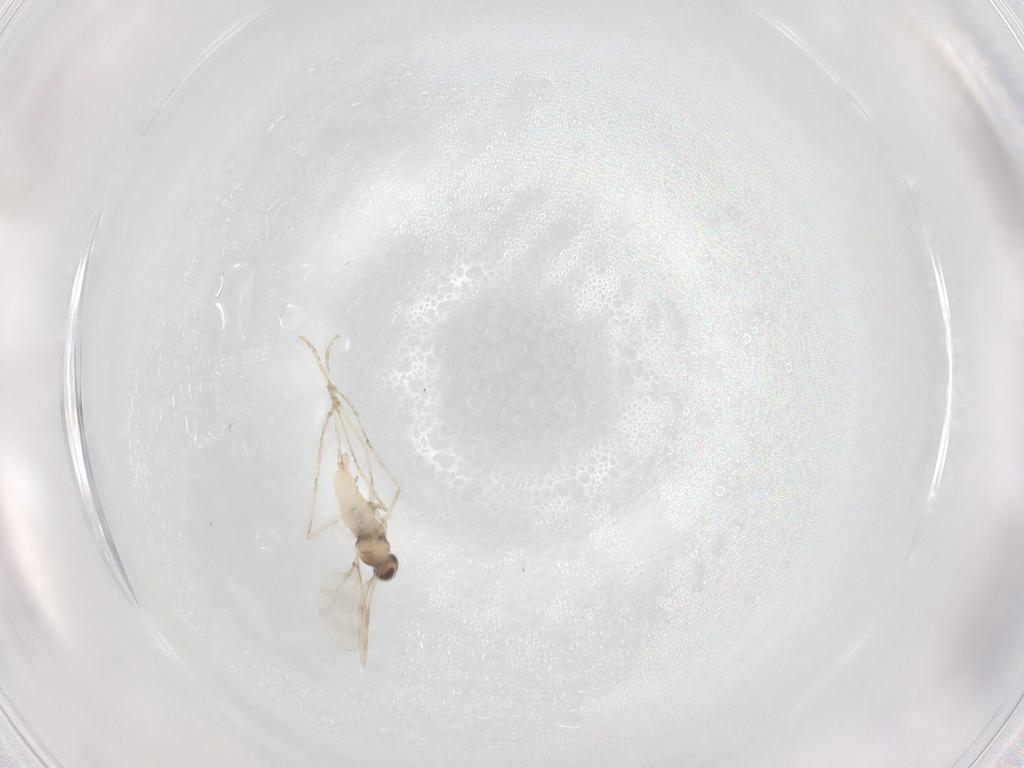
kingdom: Animalia
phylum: Arthropoda
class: Insecta
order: Diptera
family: Cecidomyiidae
